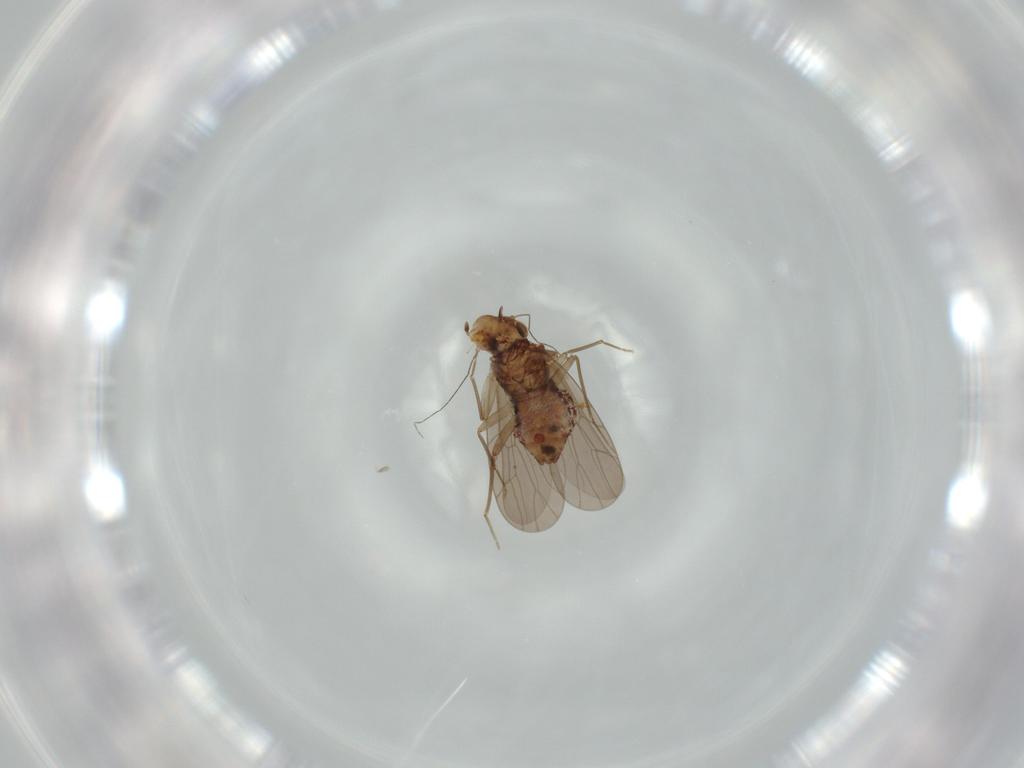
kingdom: Animalia
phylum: Arthropoda
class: Insecta
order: Psocodea
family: Lepidopsocidae
